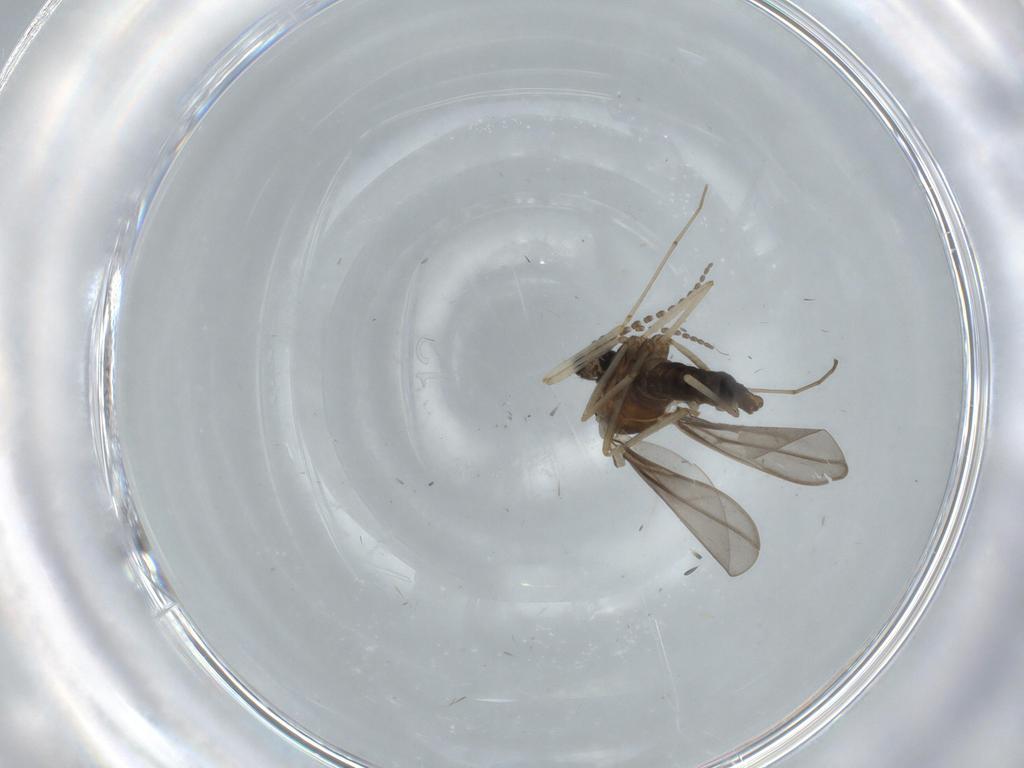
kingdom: Animalia
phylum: Arthropoda
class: Insecta
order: Diptera
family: Cecidomyiidae
